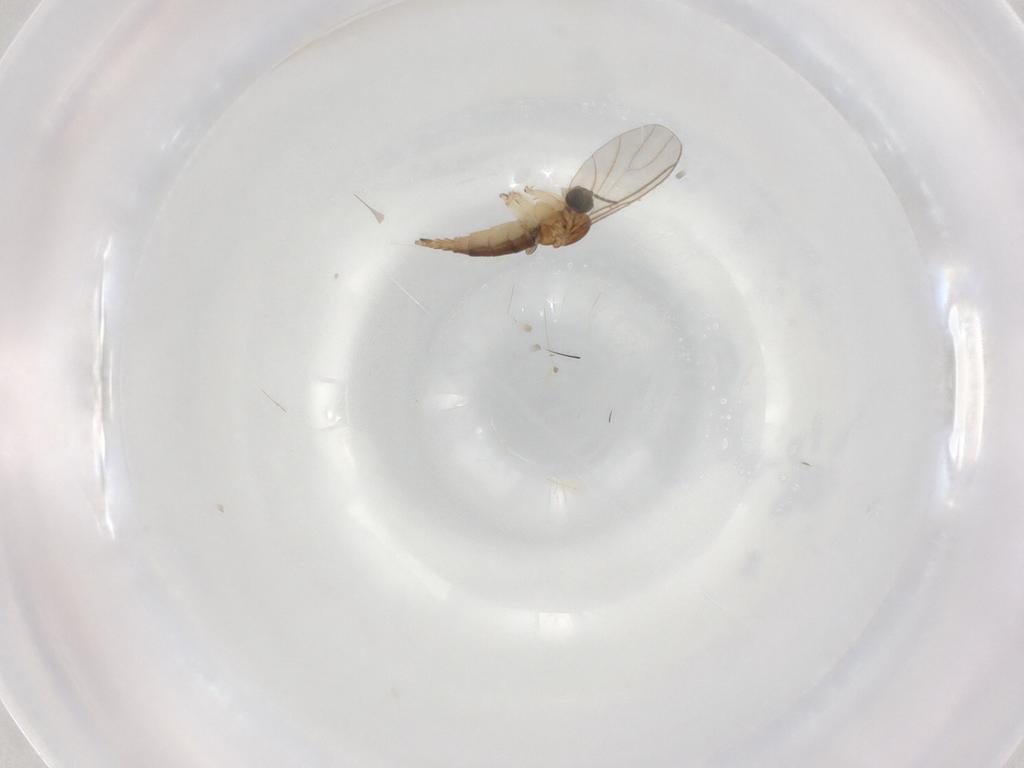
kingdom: Animalia
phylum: Arthropoda
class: Insecta
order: Diptera
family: Sciaridae
